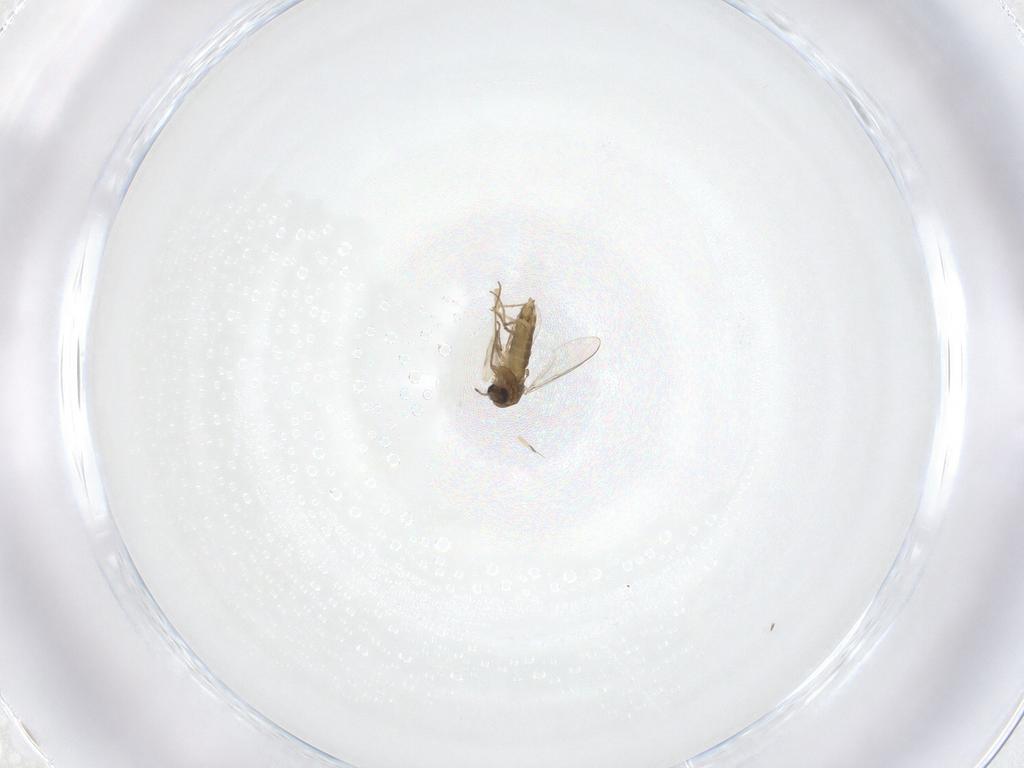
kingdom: Animalia
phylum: Arthropoda
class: Insecta
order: Diptera
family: Chironomidae
